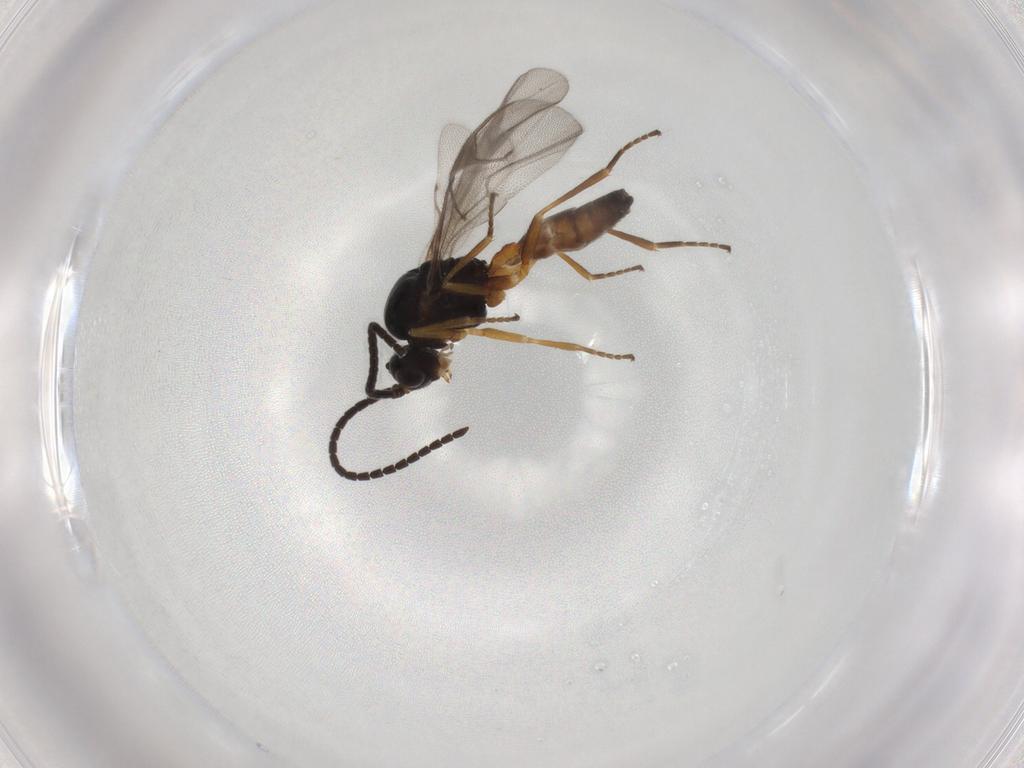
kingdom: Animalia
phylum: Arthropoda
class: Insecta
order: Hymenoptera
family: Braconidae
